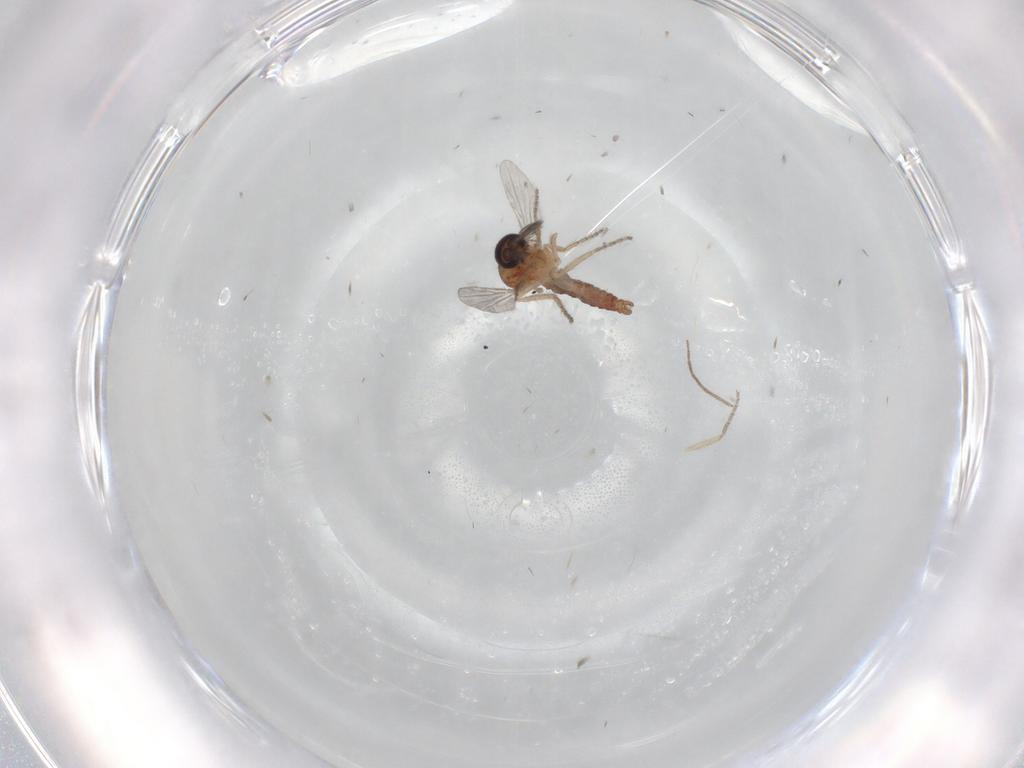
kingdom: Animalia
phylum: Arthropoda
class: Insecta
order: Diptera
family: Ceratopogonidae
